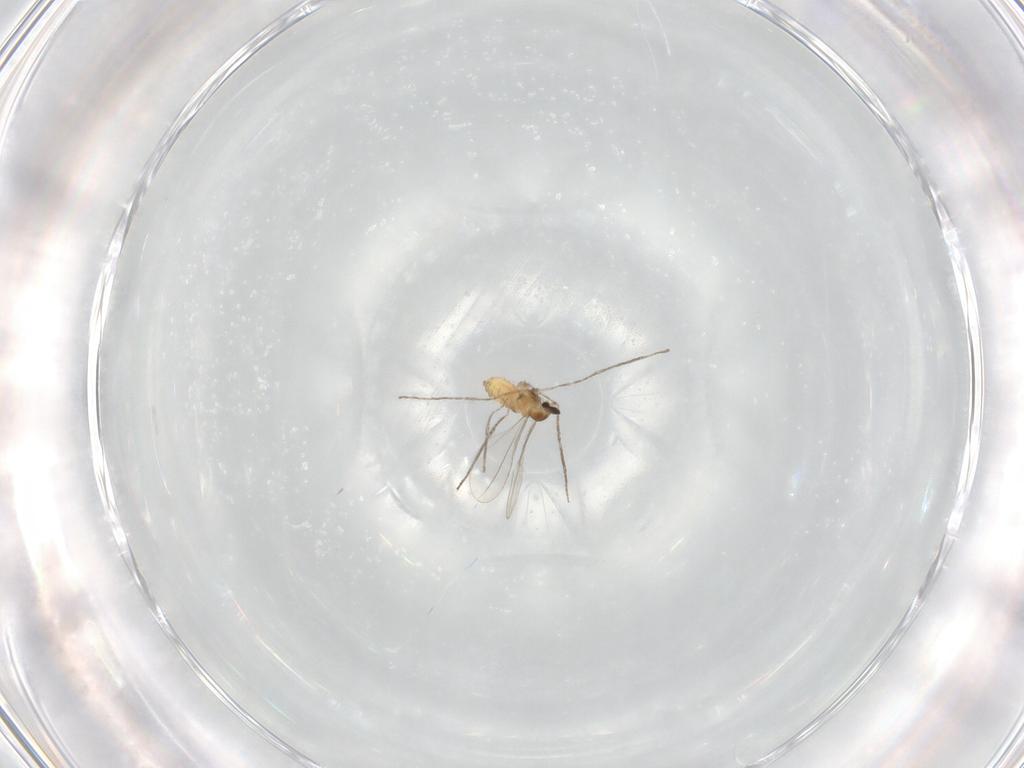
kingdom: Animalia
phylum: Arthropoda
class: Insecta
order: Diptera
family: Cecidomyiidae
